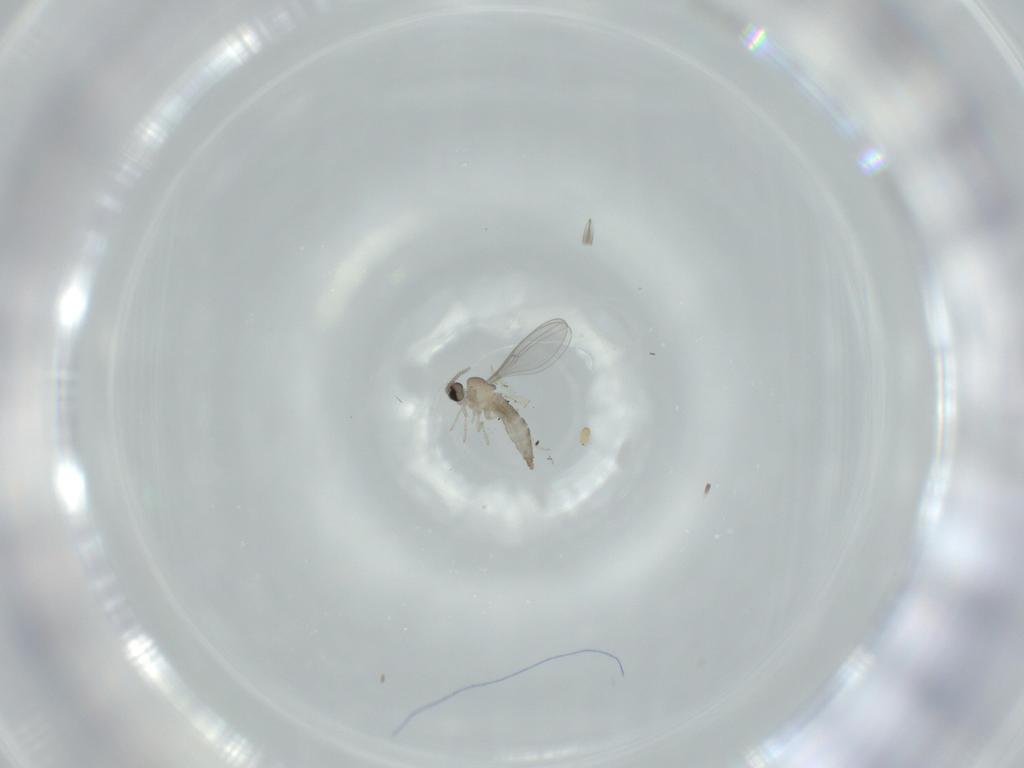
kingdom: Animalia
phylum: Arthropoda
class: Insecta
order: Diptera
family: Cecidomyiidae
